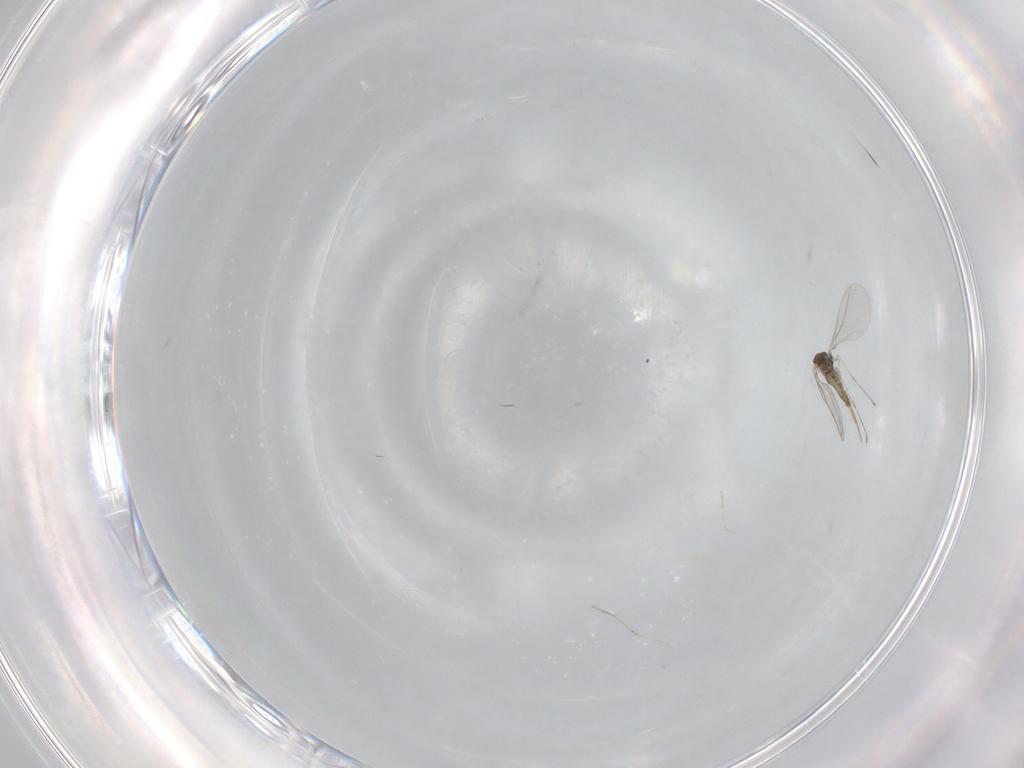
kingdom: Animalia
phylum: Arthropoda
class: Insecta
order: Diptera
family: Cecidomyiidae
